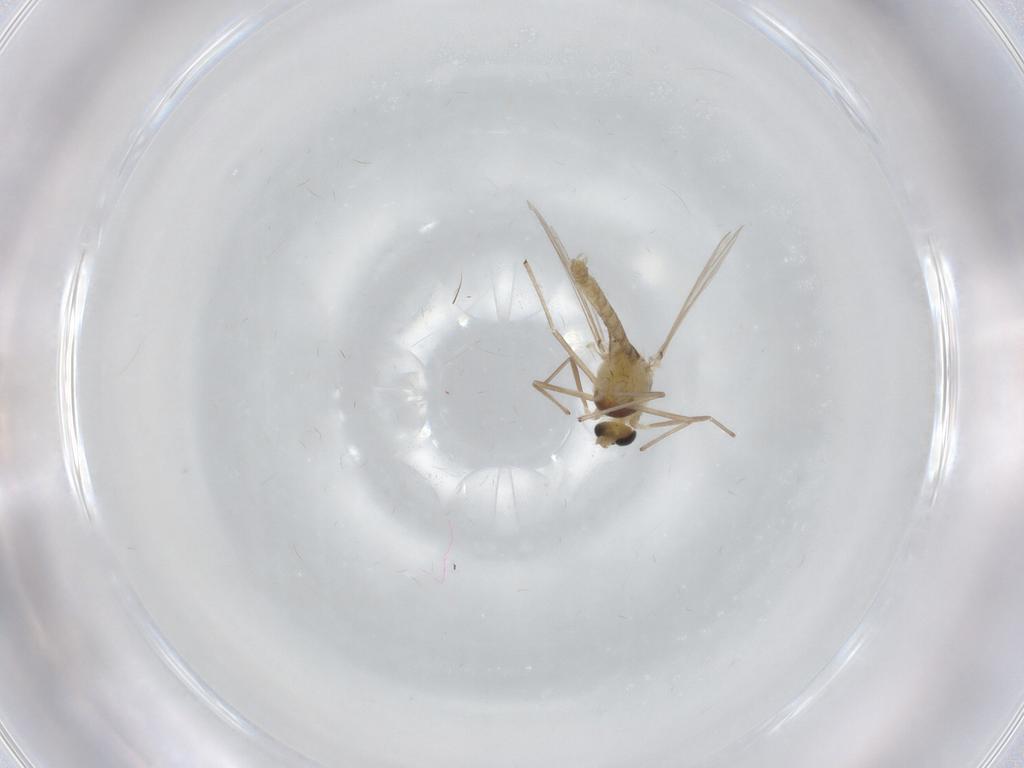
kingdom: Animalia
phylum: Arthropoda
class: Insecta
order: Diptera
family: Chironomidae
